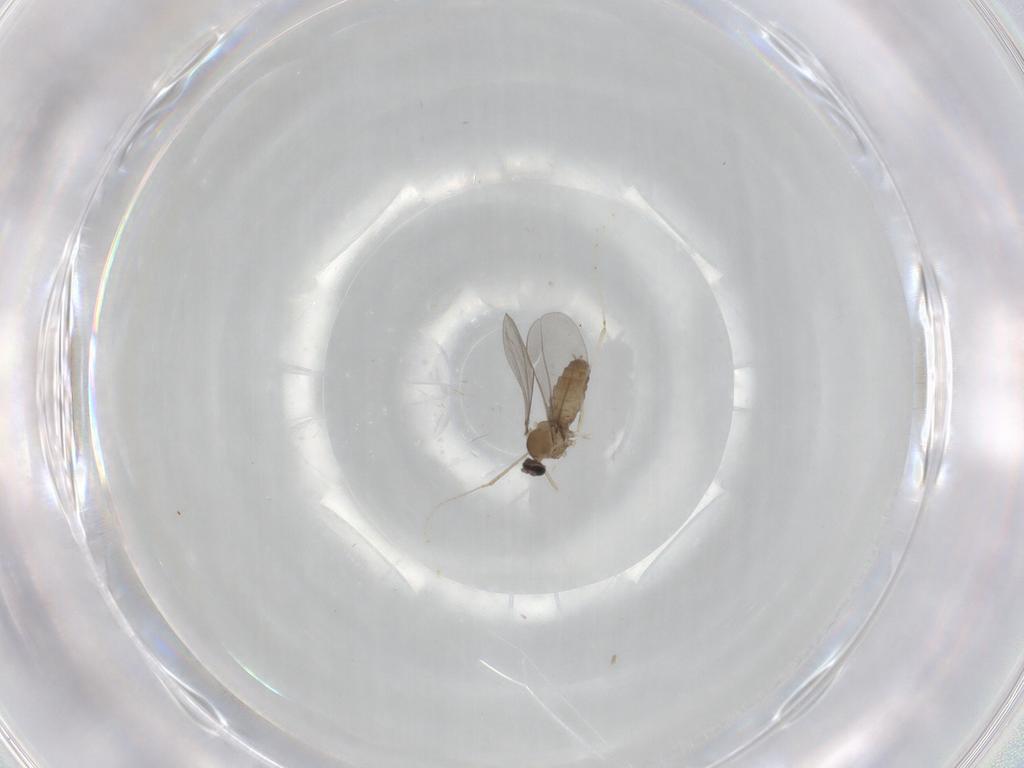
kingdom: Animalia
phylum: Arthropoda
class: Insecta
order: Diptera
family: Cecidomyiidae
